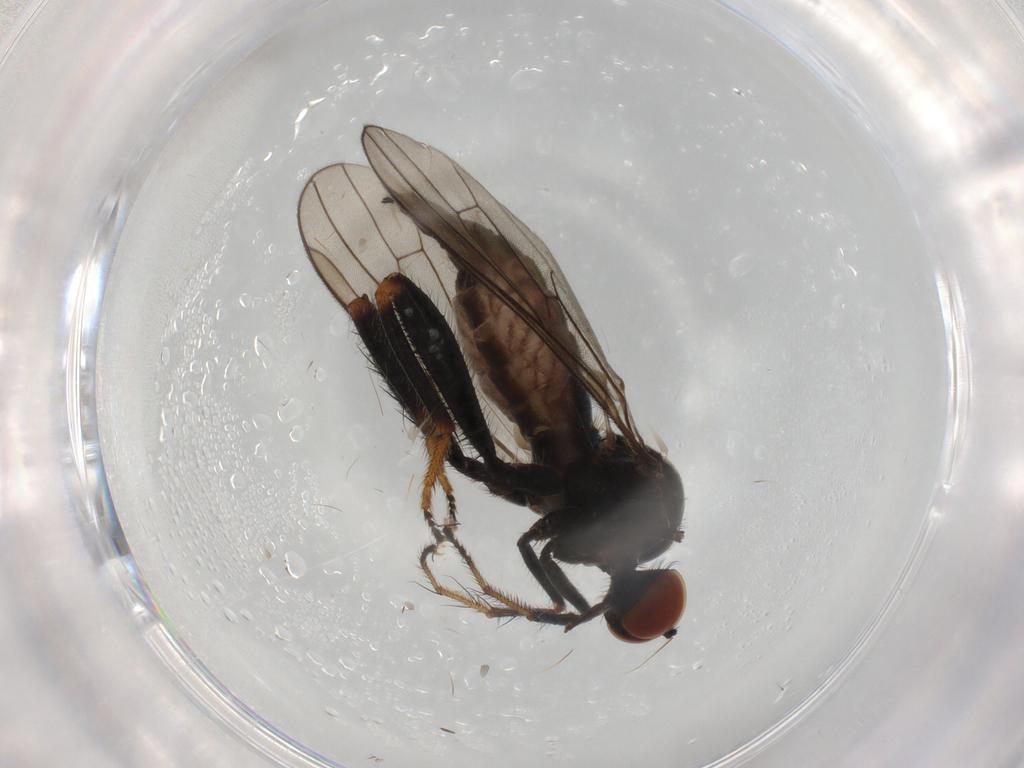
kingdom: Animalia
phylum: Arthropoda
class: Insecta
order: Diptera
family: Hybotidae
